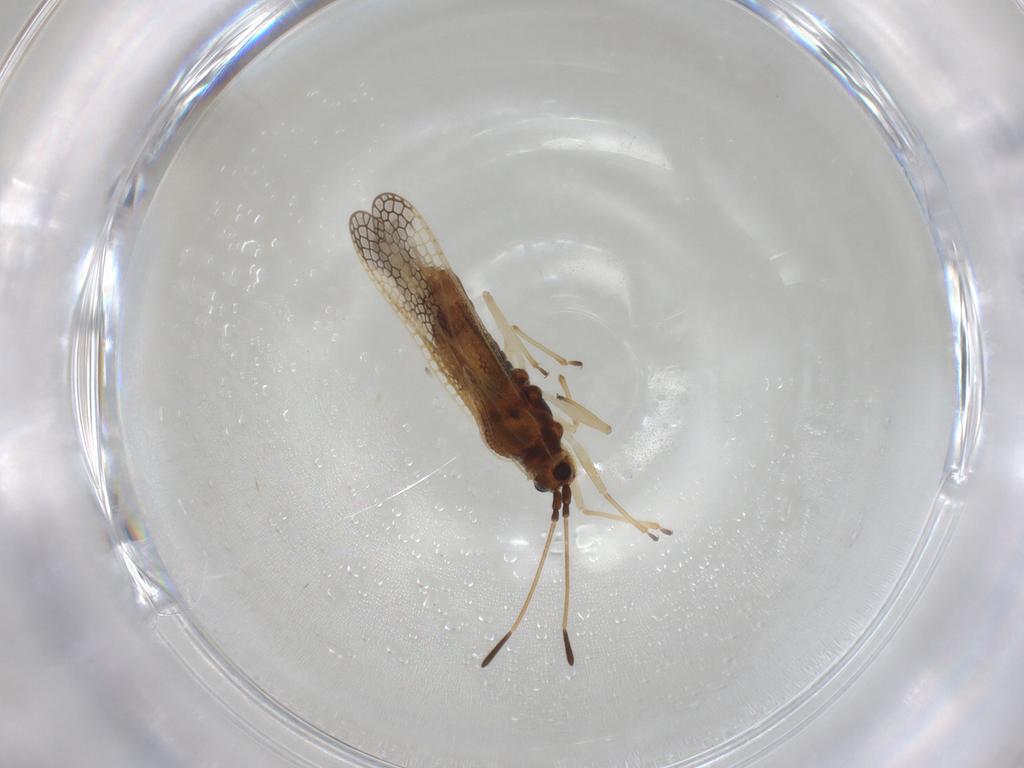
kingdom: Animalia
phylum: Arthropoda
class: Insecta
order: Hemiptera
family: Tingidae
